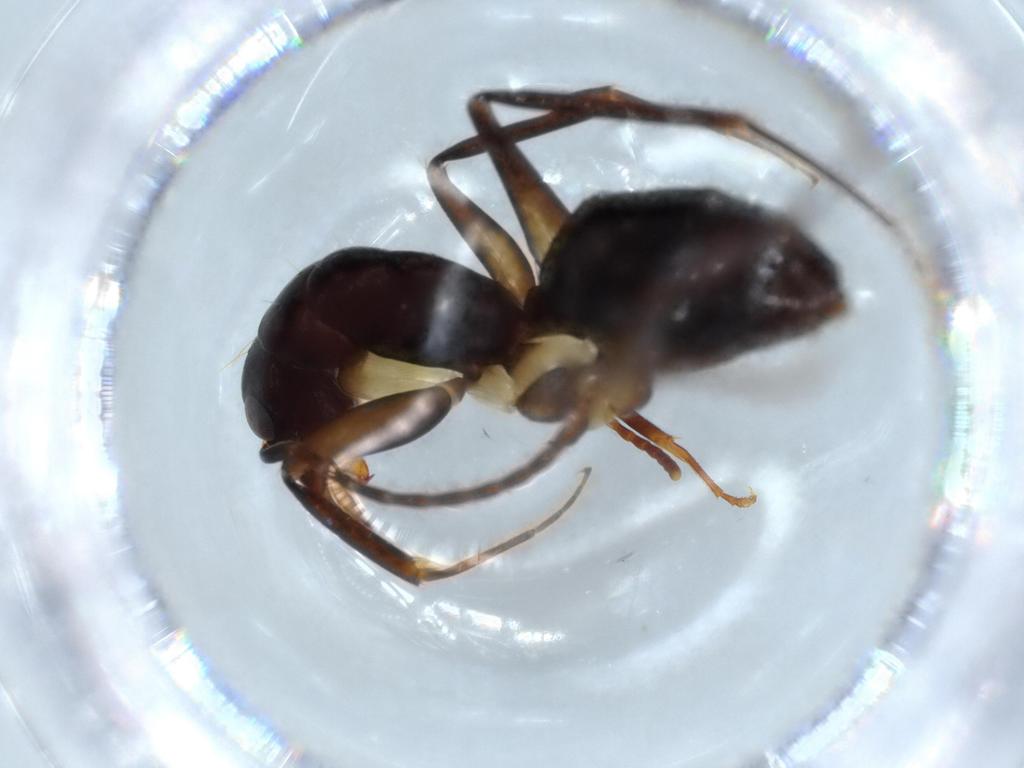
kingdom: Animalia
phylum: Arthropoda
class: Insecta
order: Hymenoptera
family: Formicidae
